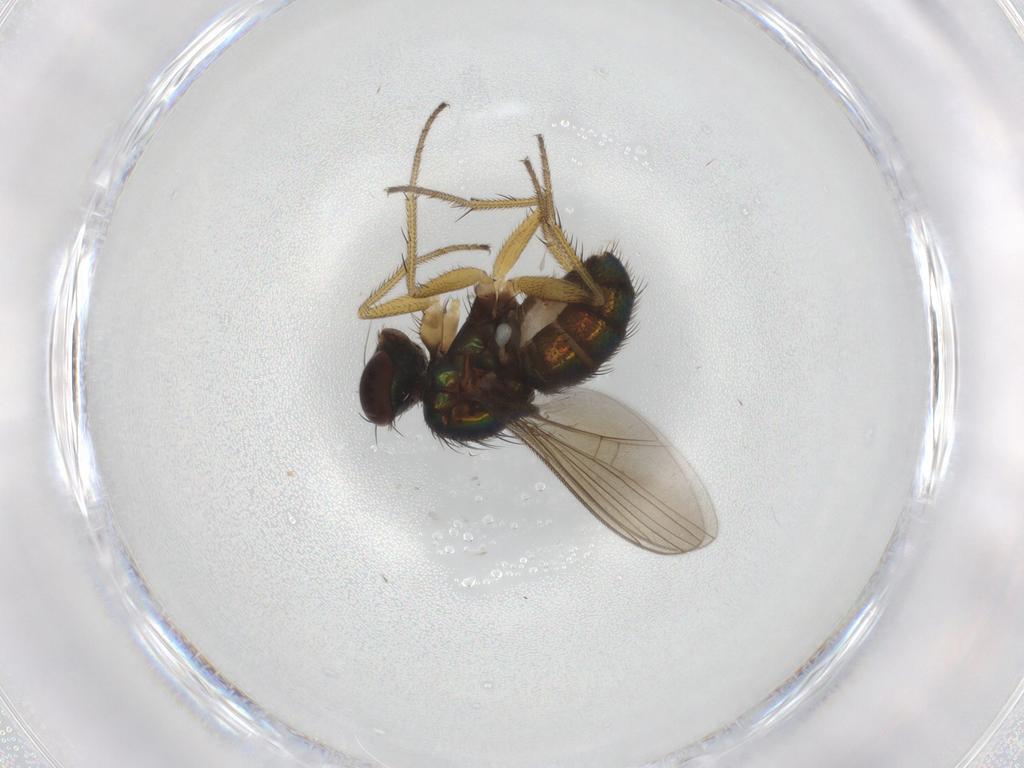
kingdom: Animalia
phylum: Arthropoda
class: Insecta
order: Diptera
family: Dolichopodidae
